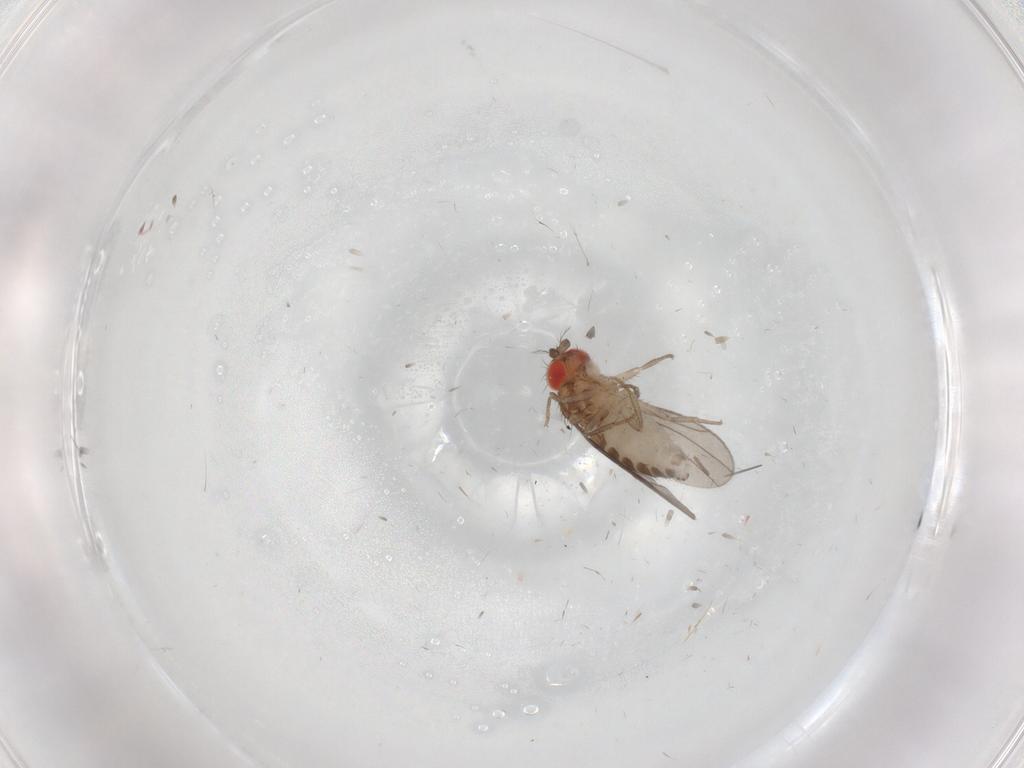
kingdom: Animalia
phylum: Arthropoda
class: Insecta
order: Diptera
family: Drosophilidae
